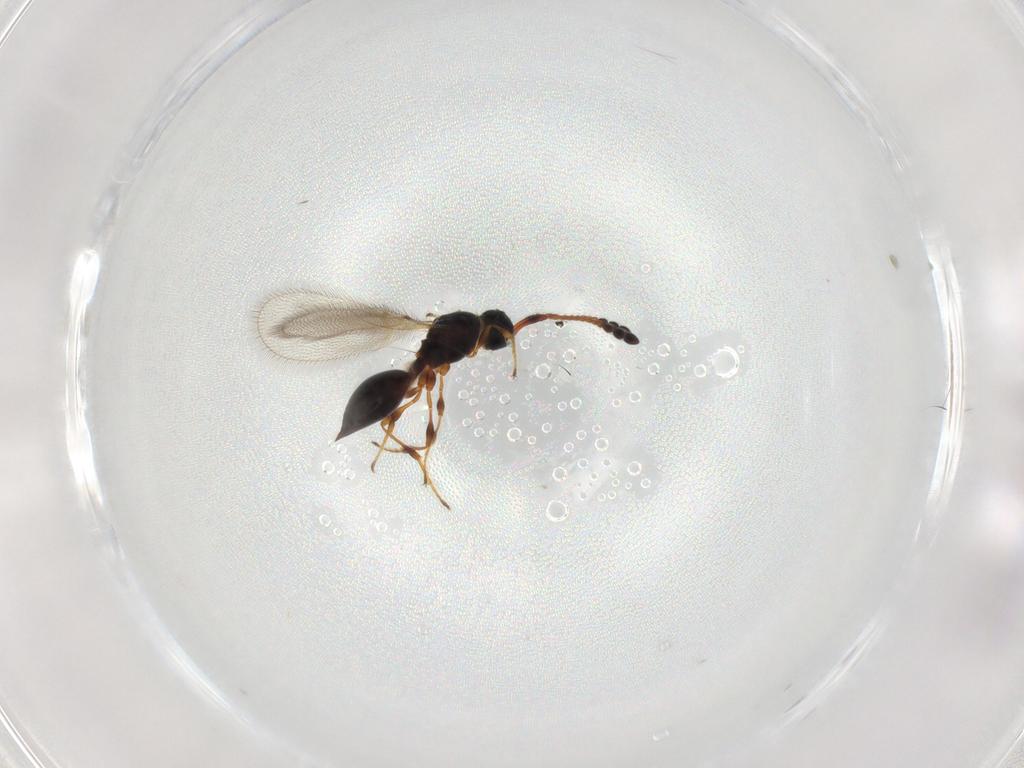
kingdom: Animalia
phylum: Arthropoda
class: Insecta
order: Hymenoptera
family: Diapriidae
